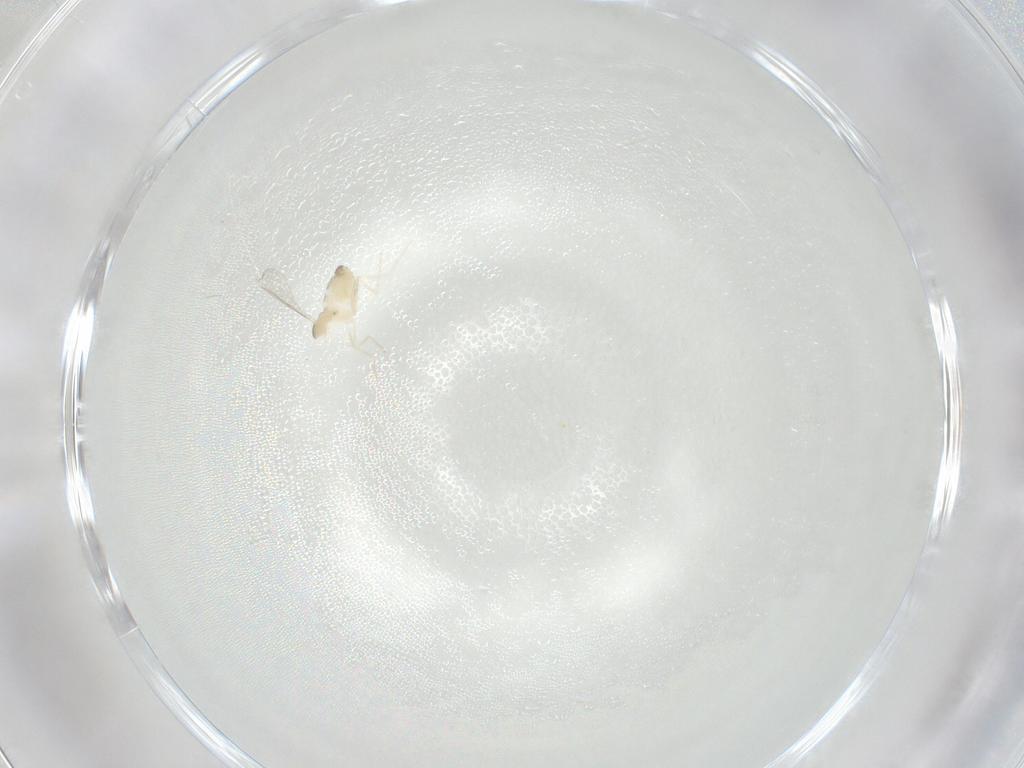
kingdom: Animalia
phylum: Arthropoda
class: Insecta
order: Diptera
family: Cecidomyiidae
